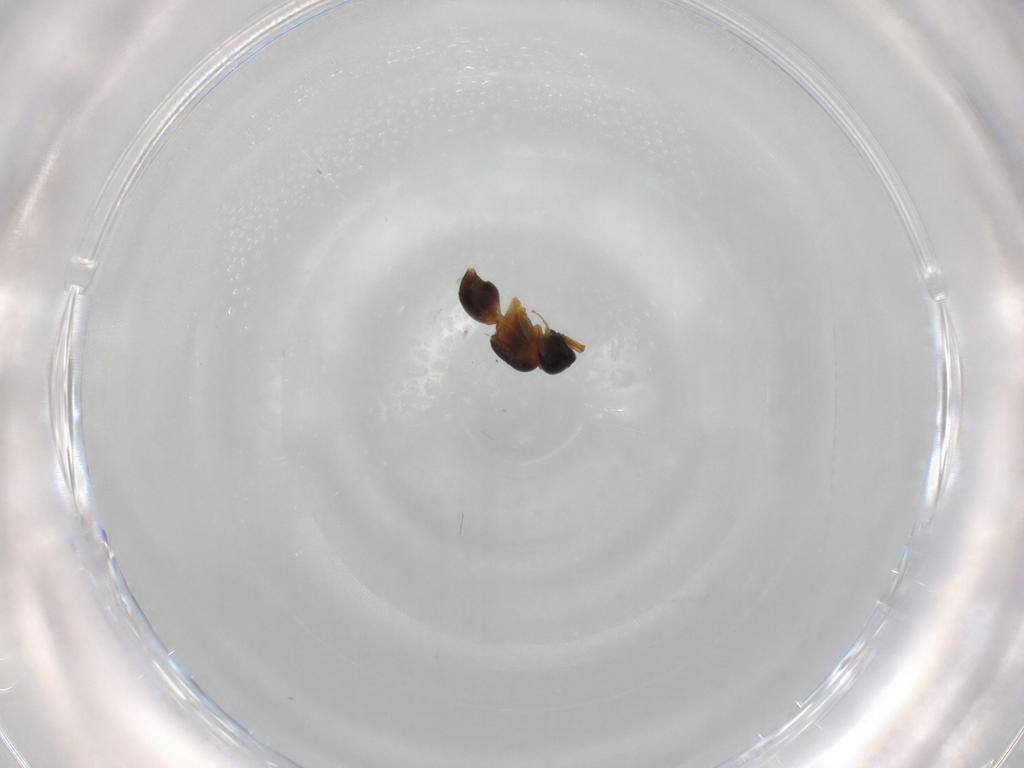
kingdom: Animalia
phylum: Arthropoda
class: Insecta
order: Hymenoptera
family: Ceraphronidae
